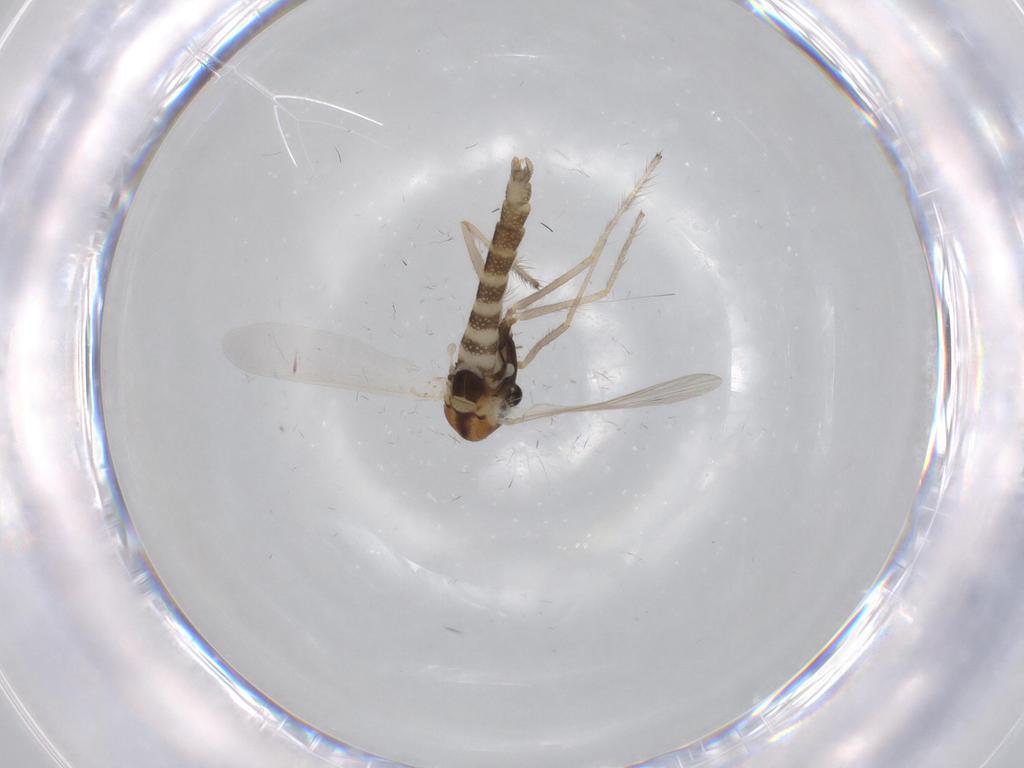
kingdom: Animalia
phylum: Arthropoda
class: Insecta
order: Diptera
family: Chironomidae
